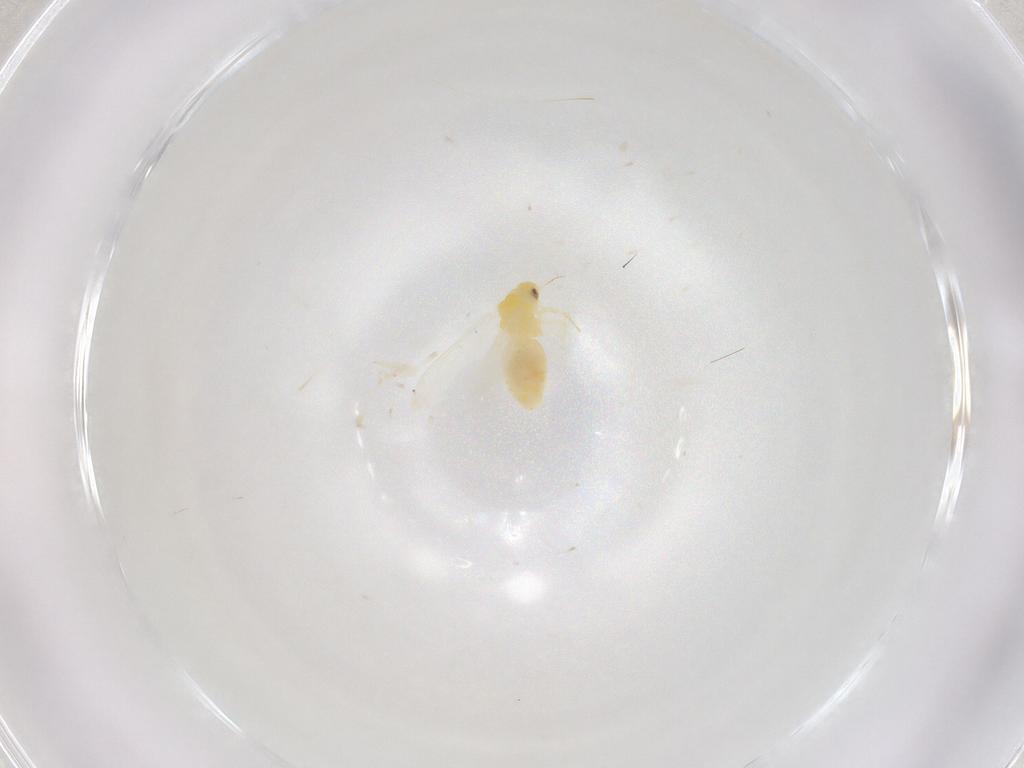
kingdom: Animalia
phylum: Arthropoda
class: Insecta
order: Hemiptera
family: Aleyrodidae
